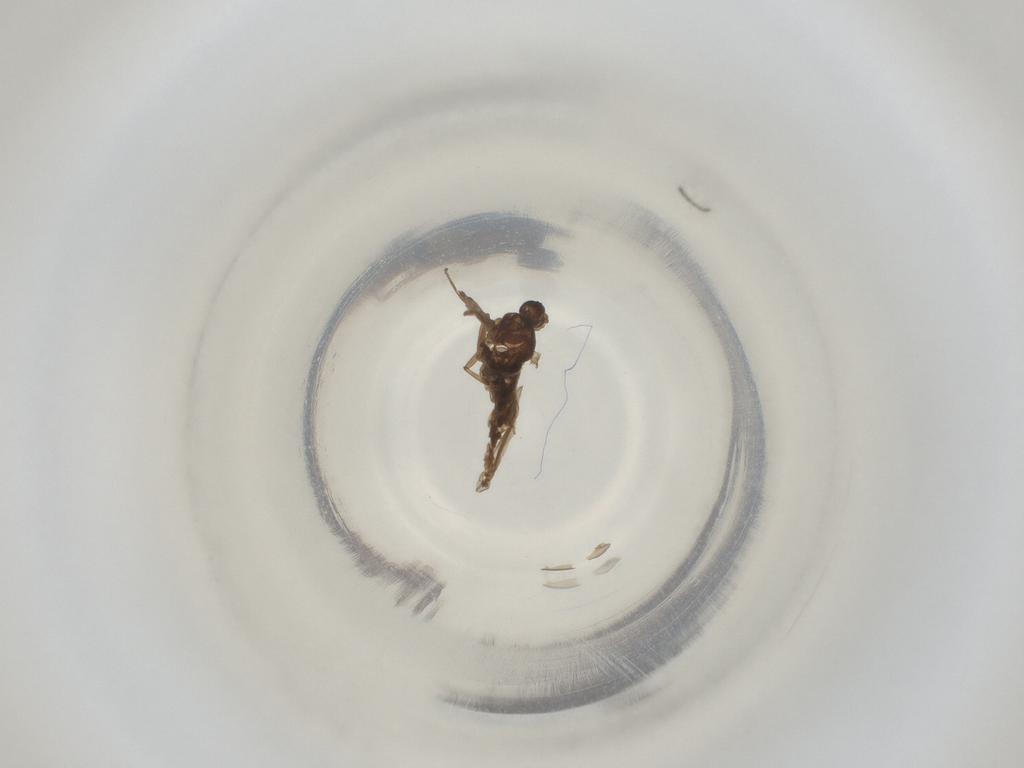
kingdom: Animalia
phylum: Arthropoda
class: Insecta
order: Diptera
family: Cecidomyiidae
